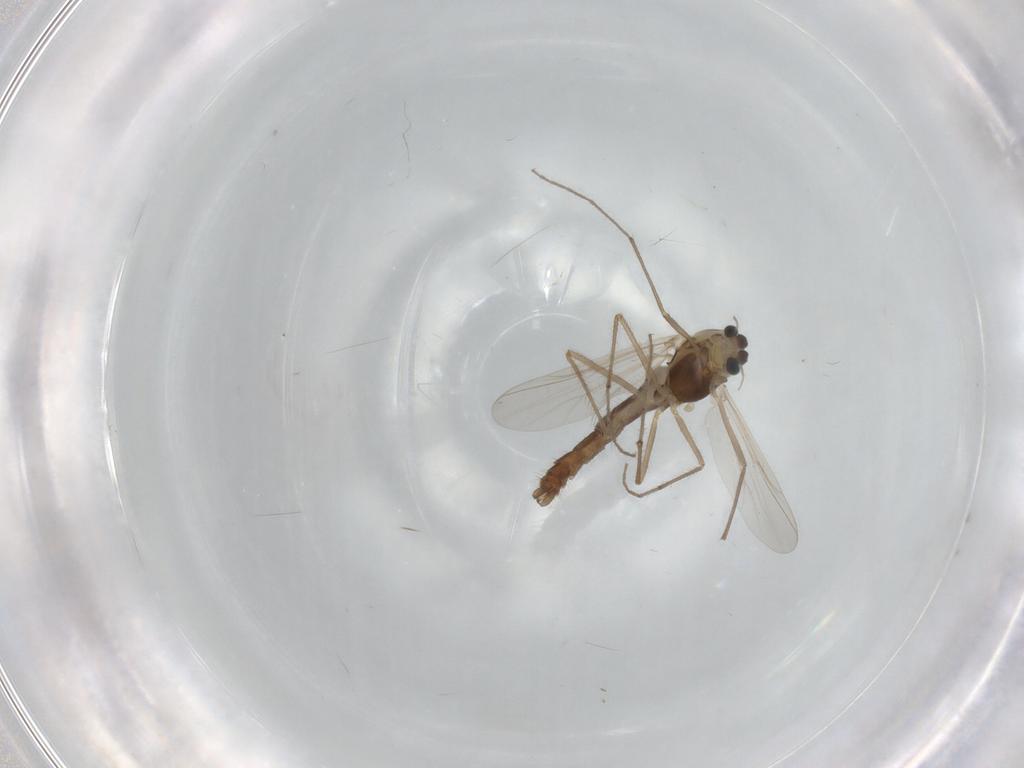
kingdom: Animalia
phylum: Arthropoda
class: Insecta
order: Diptera
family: Chironomidae
